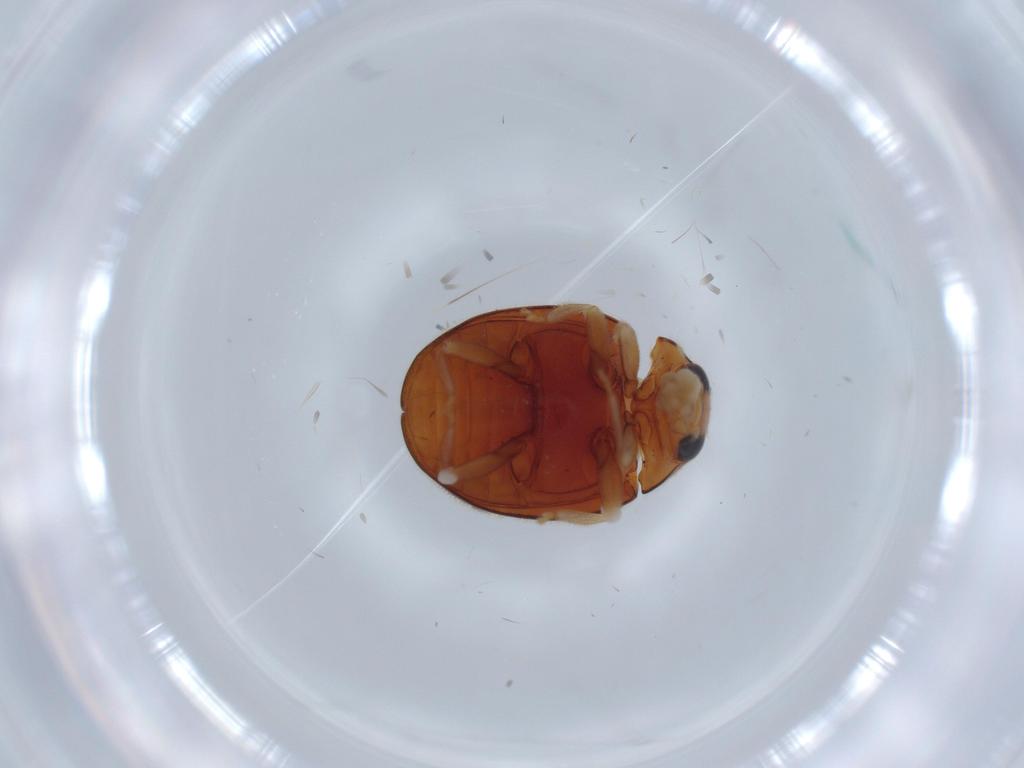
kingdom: Animalia
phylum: Arthropoda
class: Insecta
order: Coleoptera
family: Coccinellidae
